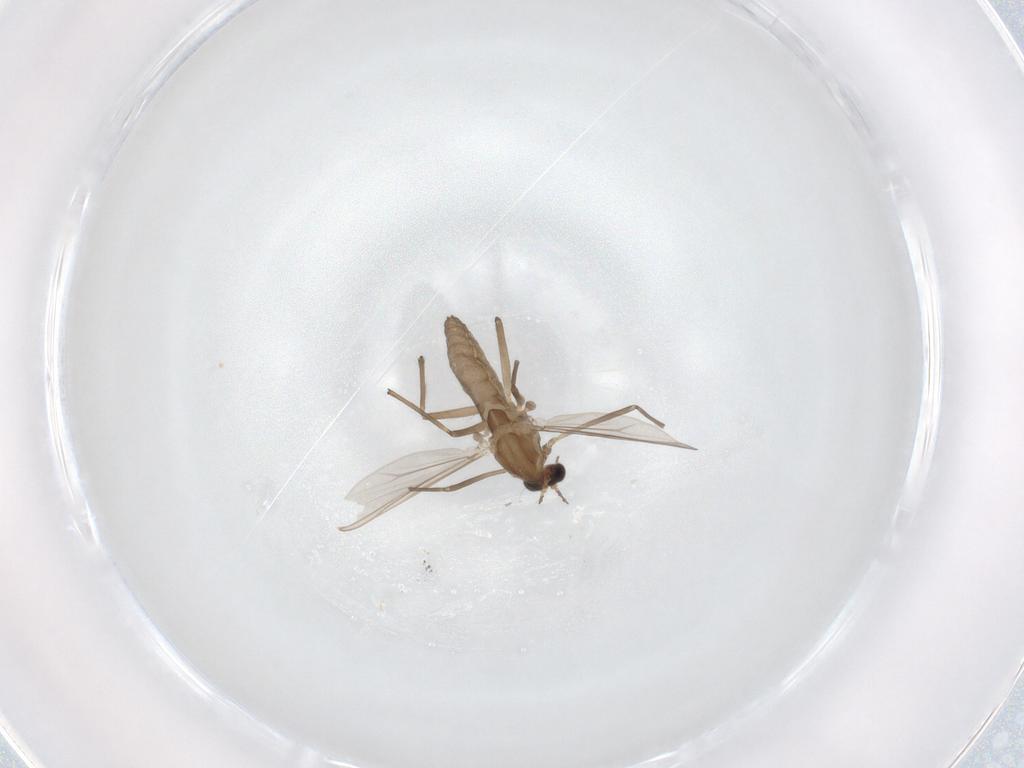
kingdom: Animalia
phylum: Arthropoda
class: Insecta
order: Diptera
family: Chironomidae
